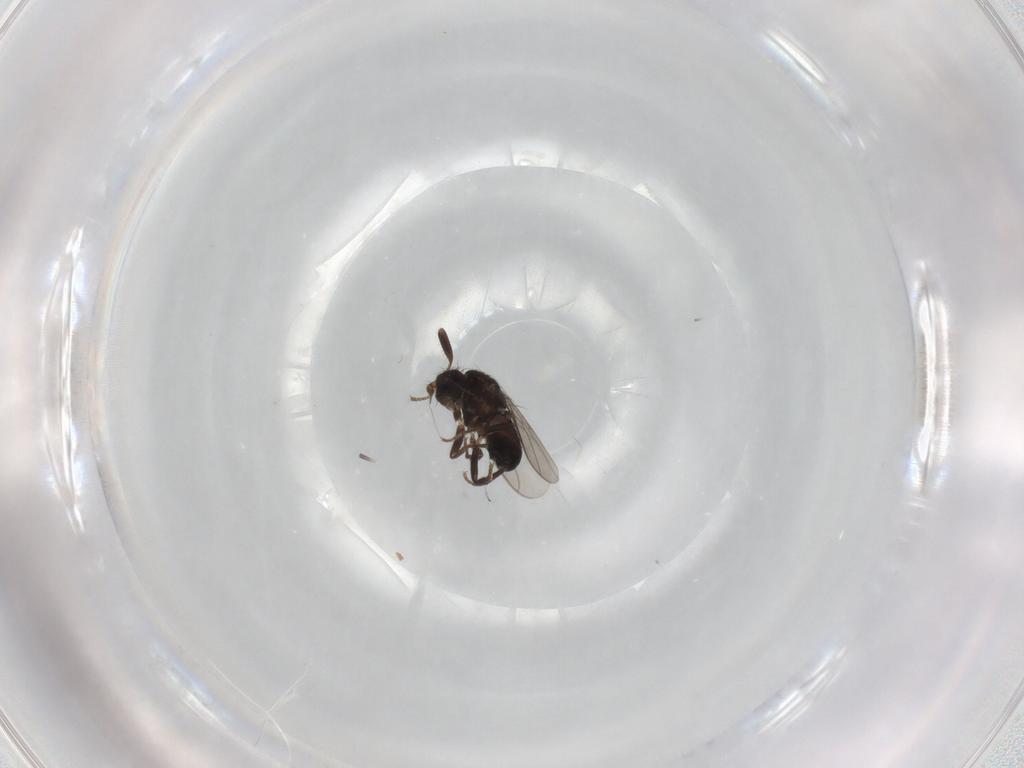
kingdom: Animalia
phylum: Arthropoda
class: Insecta
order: Diptera
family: Sphaeroceridae
